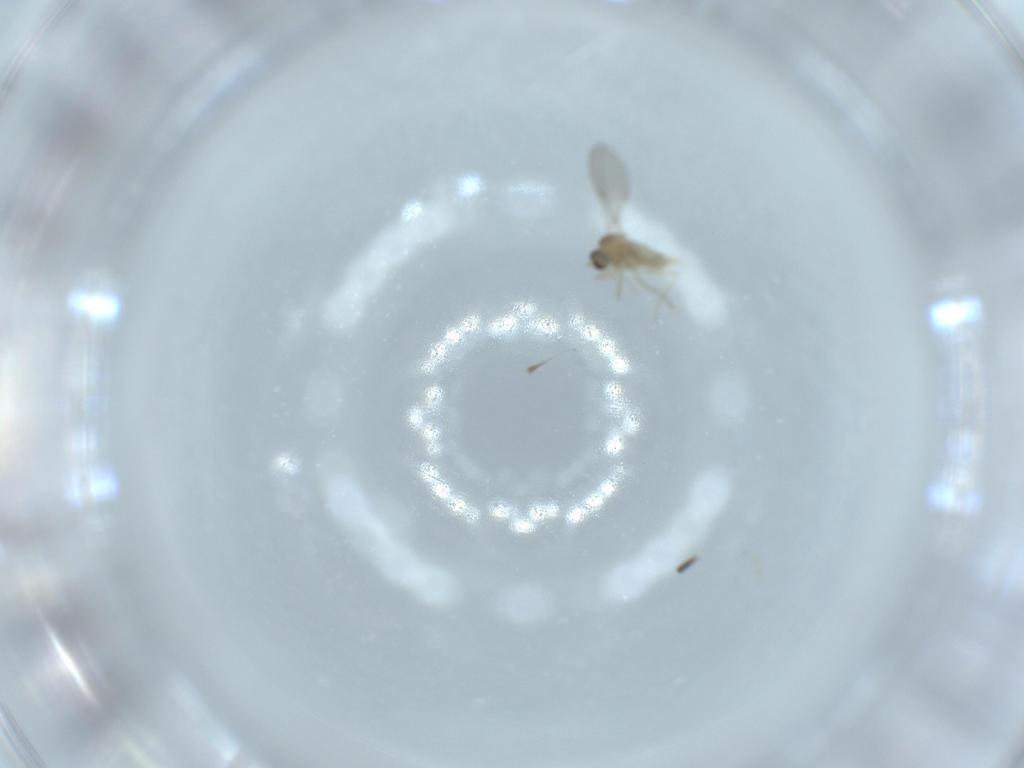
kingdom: Animalia
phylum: Arthropoda
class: Insecta
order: Diptera
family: Cecidomyiidae
